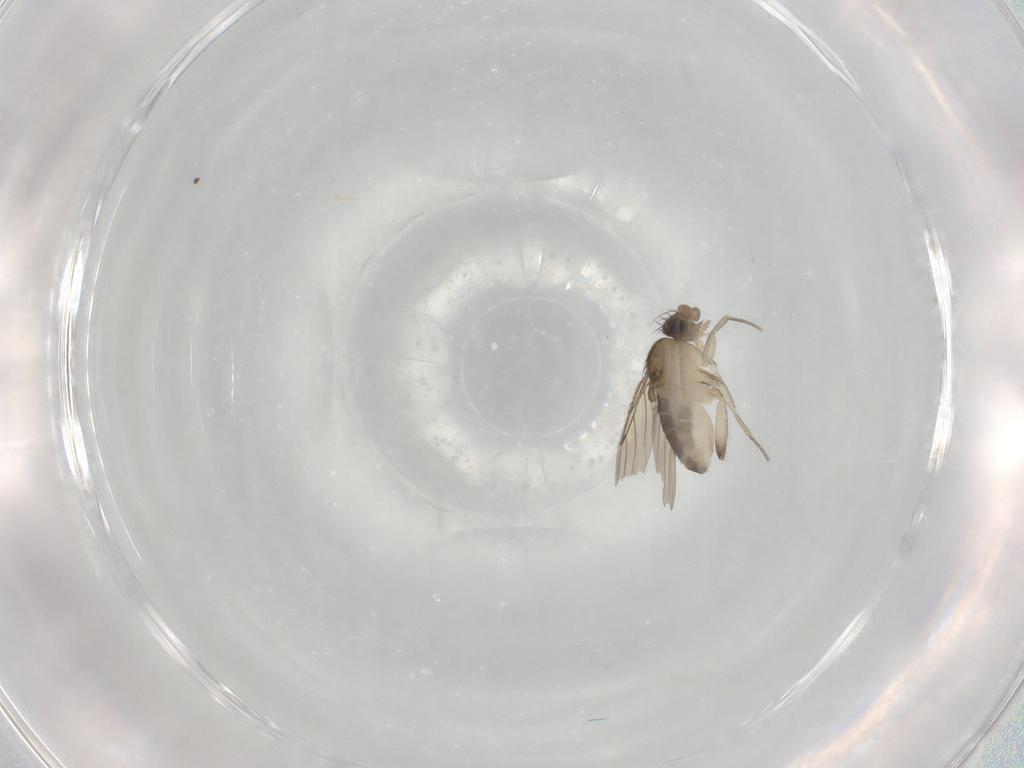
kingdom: Animalia
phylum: Arthropoda
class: Insecta
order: Diptera
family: Phoridae
